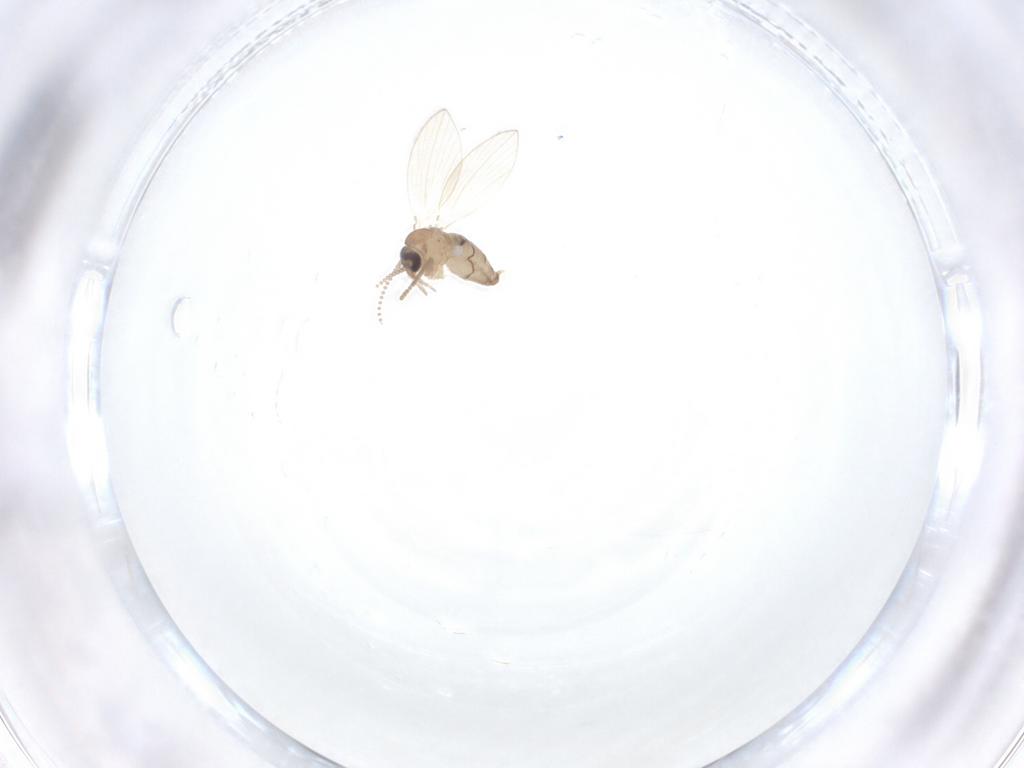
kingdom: Animalia
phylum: Arthropoda
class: Insecta
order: Diptera
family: Psychodidae
